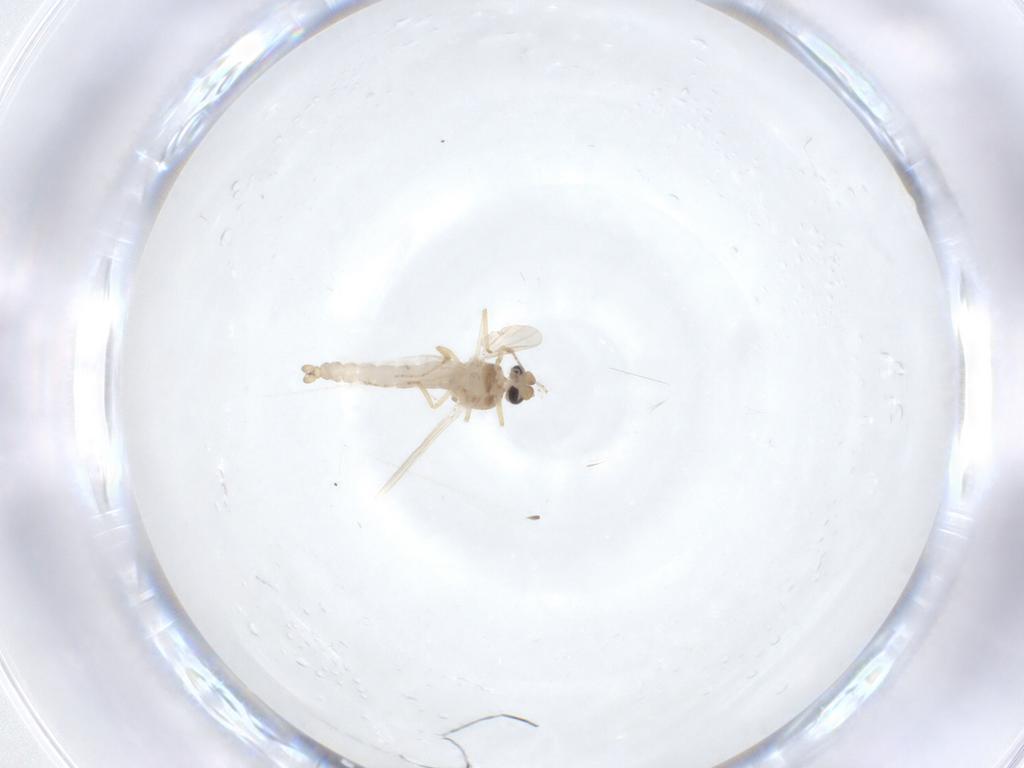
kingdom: Animalia
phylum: Arthropoda
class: Insecta
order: Diptera
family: Ceratopogonidae
